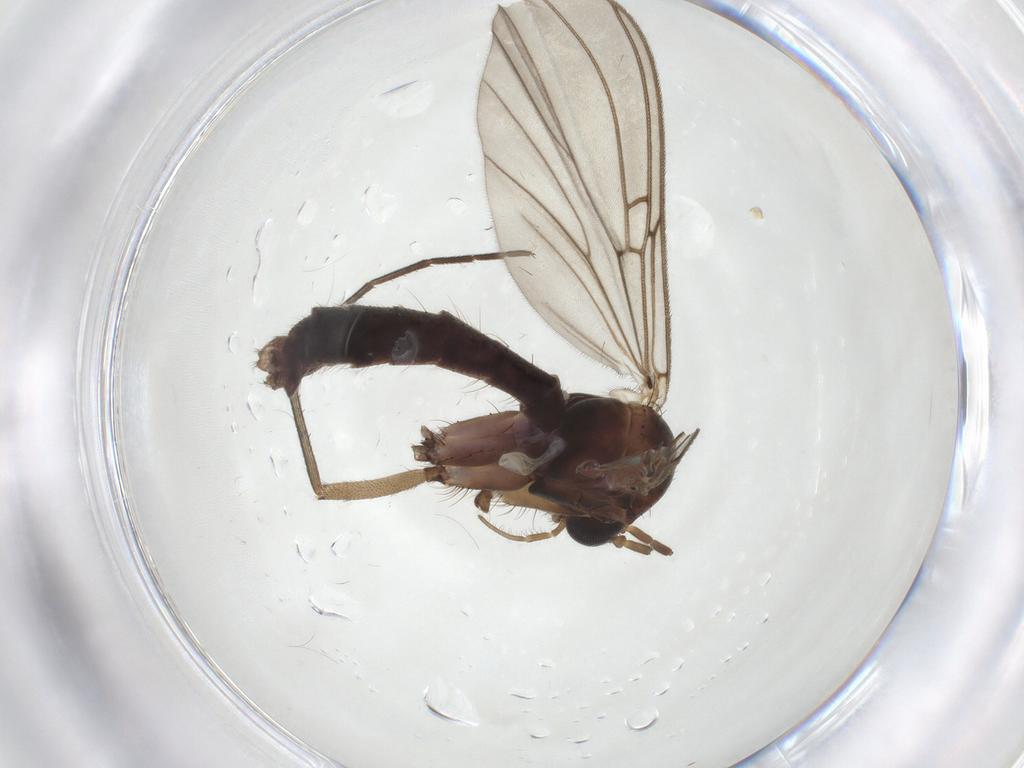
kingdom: Animalia
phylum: Arthropoda
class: Insecta
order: Diptera
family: Mycetophilidae
